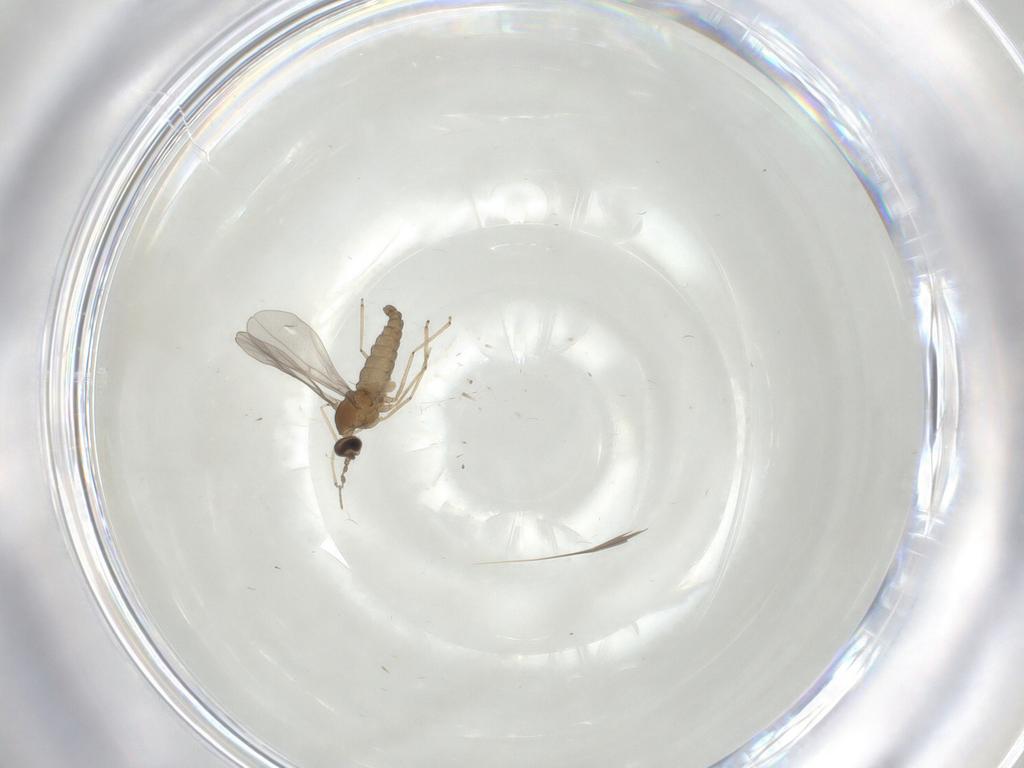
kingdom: Animalia
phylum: Arthropoda
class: Insecta
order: Diptera
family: Cecidomyiidae
